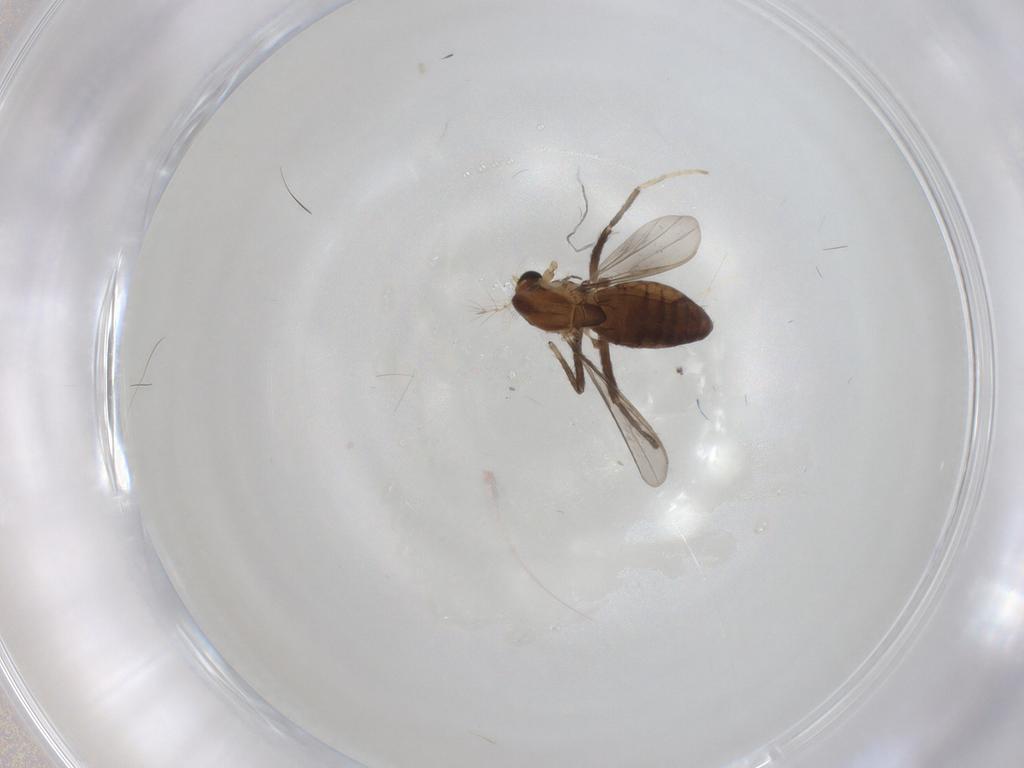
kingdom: Animalia
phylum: Arthropoda
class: Insecta
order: Diptera
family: Chironomidae
